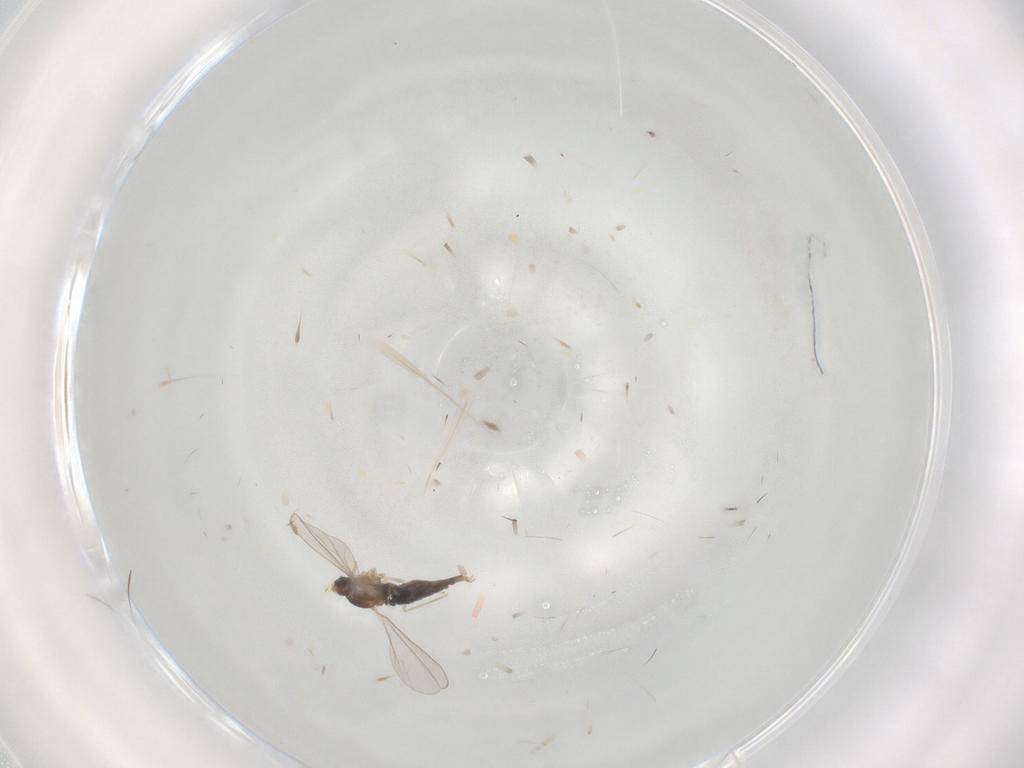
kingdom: Animalia
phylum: Arthropoda
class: Insecta
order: Diptera
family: Cecidomyiidae
